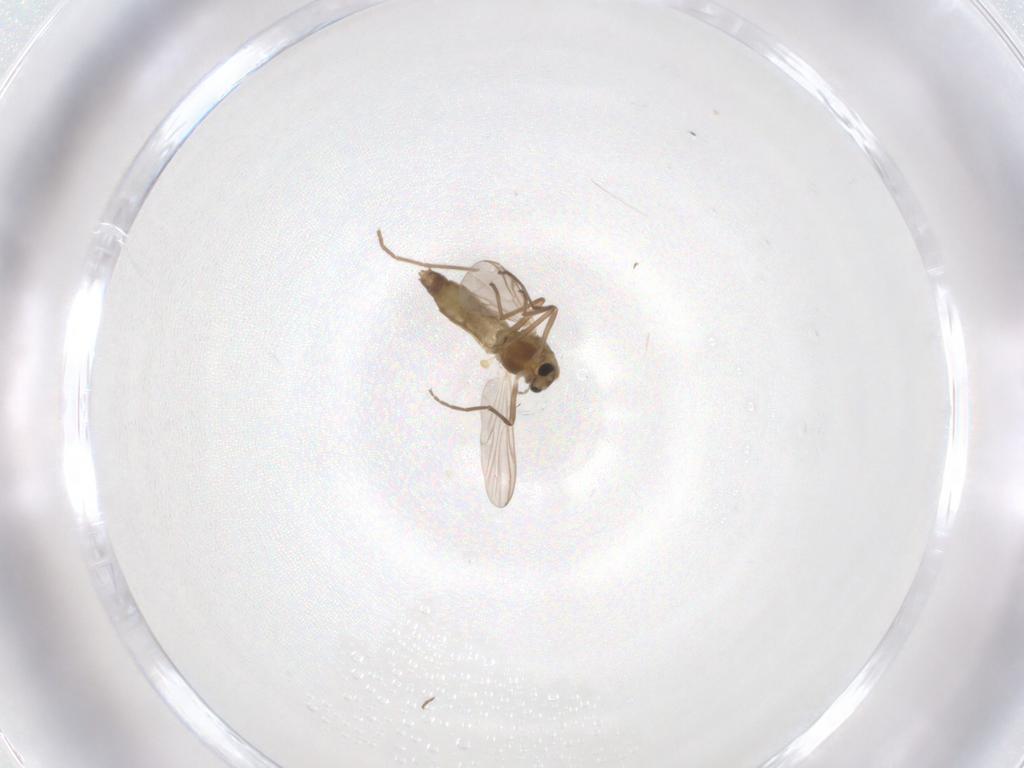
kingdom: Animalia
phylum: Arthropoda
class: Insecta
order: Diptera
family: Chironomidae
